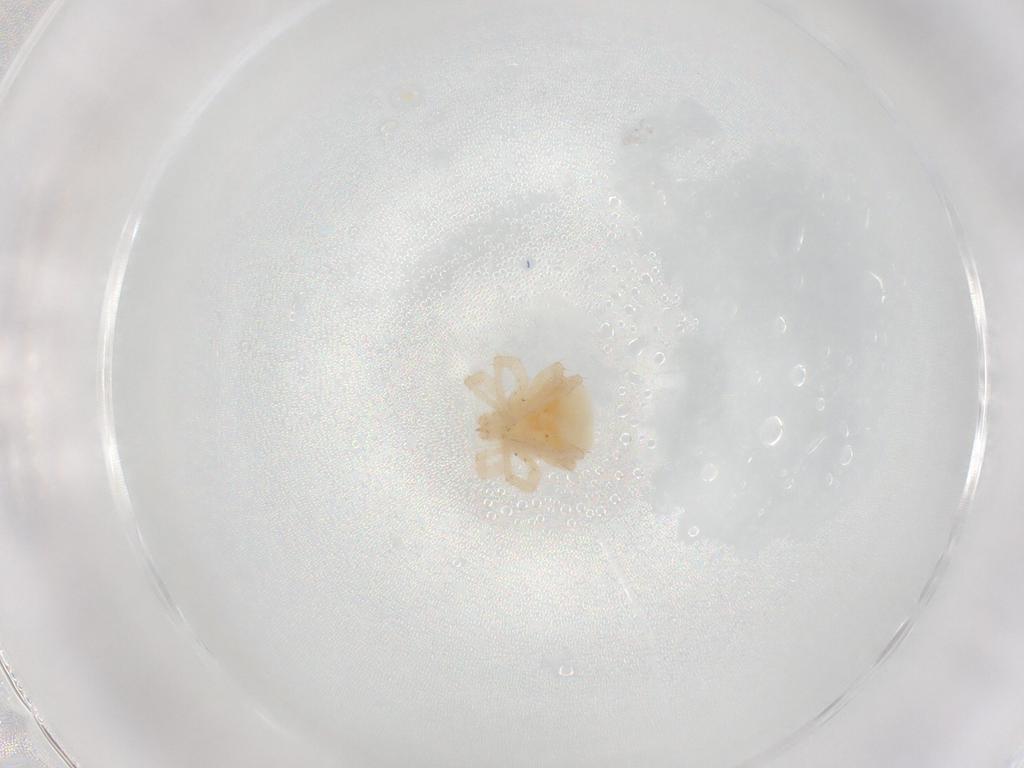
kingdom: Animalia
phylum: Arthropoda
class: Arachnida
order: Trombidiformes
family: Anystidae
